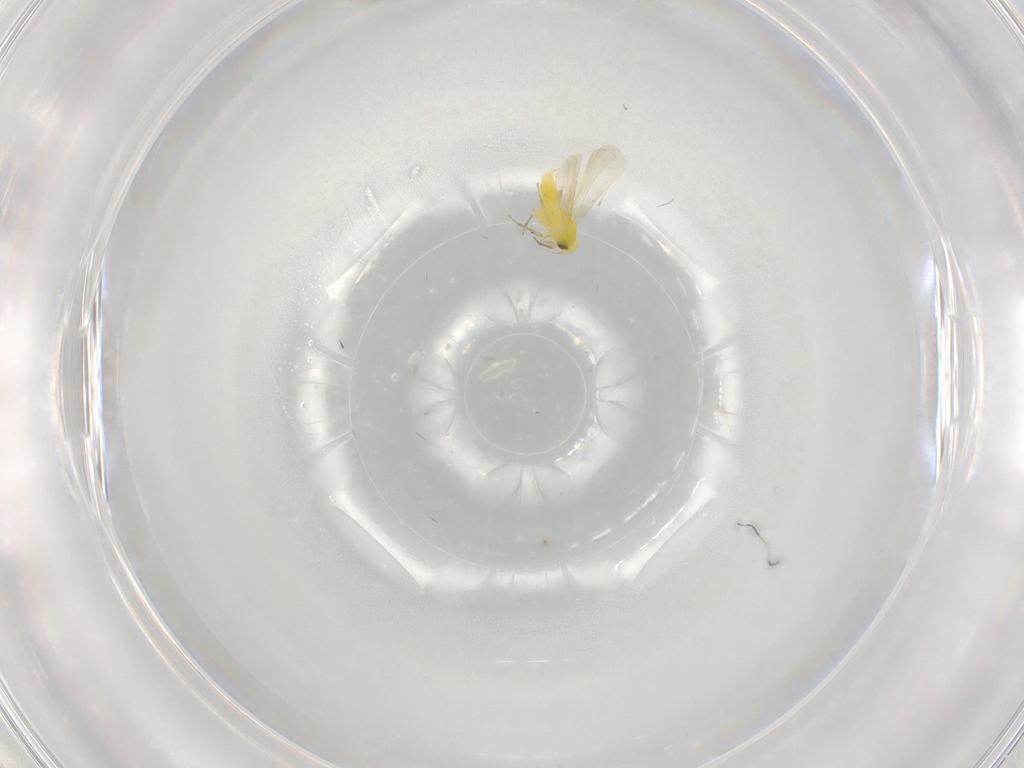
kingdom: Animalia
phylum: Arthropoda
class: Insecta
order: Hemiptera
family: Aleyrodidae
